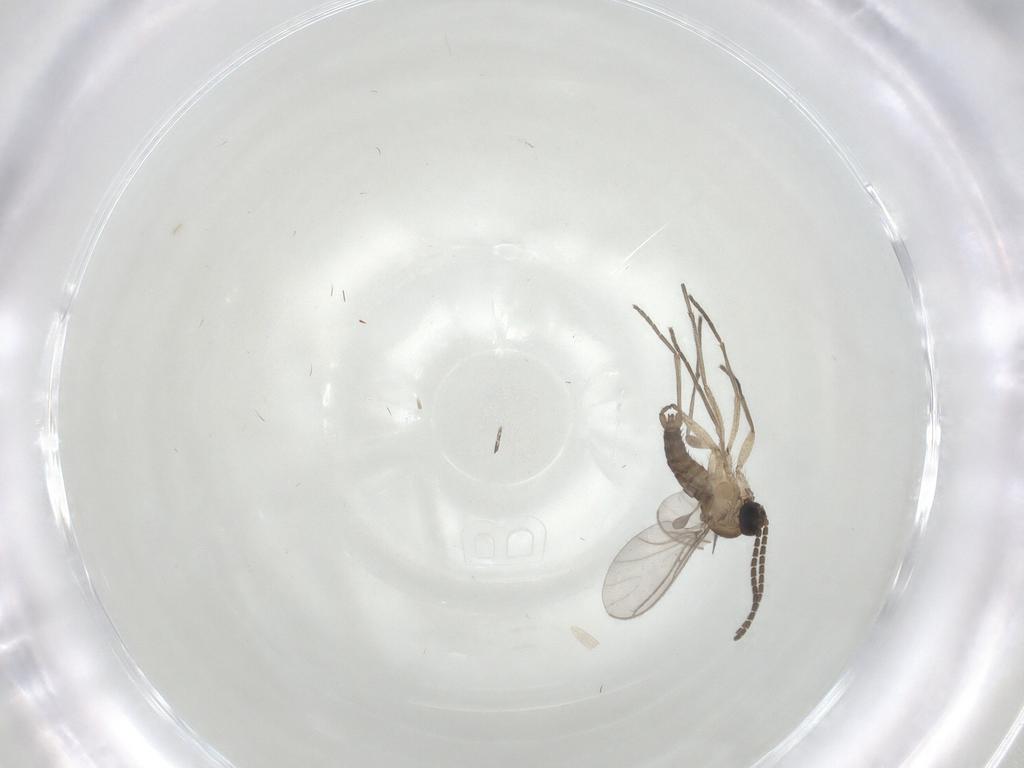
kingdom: Animalia
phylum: Arthropoda
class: Insecta
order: Diptera
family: Sciaridae
